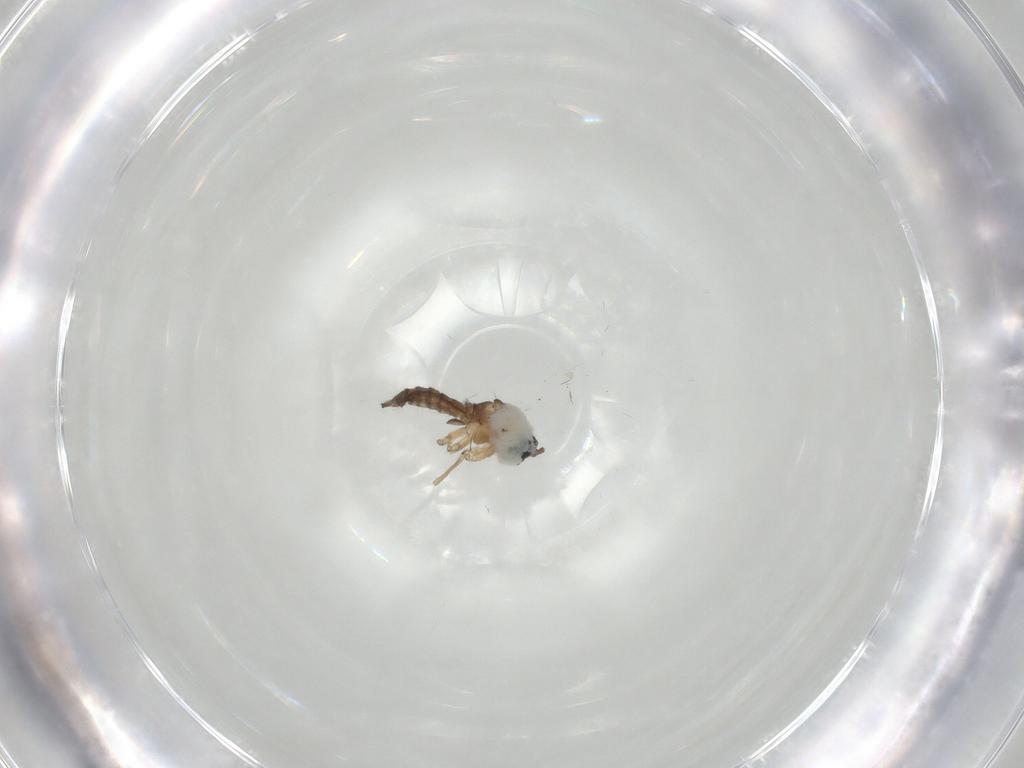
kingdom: Animalia
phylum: Arthropoda
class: Insecta
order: Diptera
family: Sciaridae
